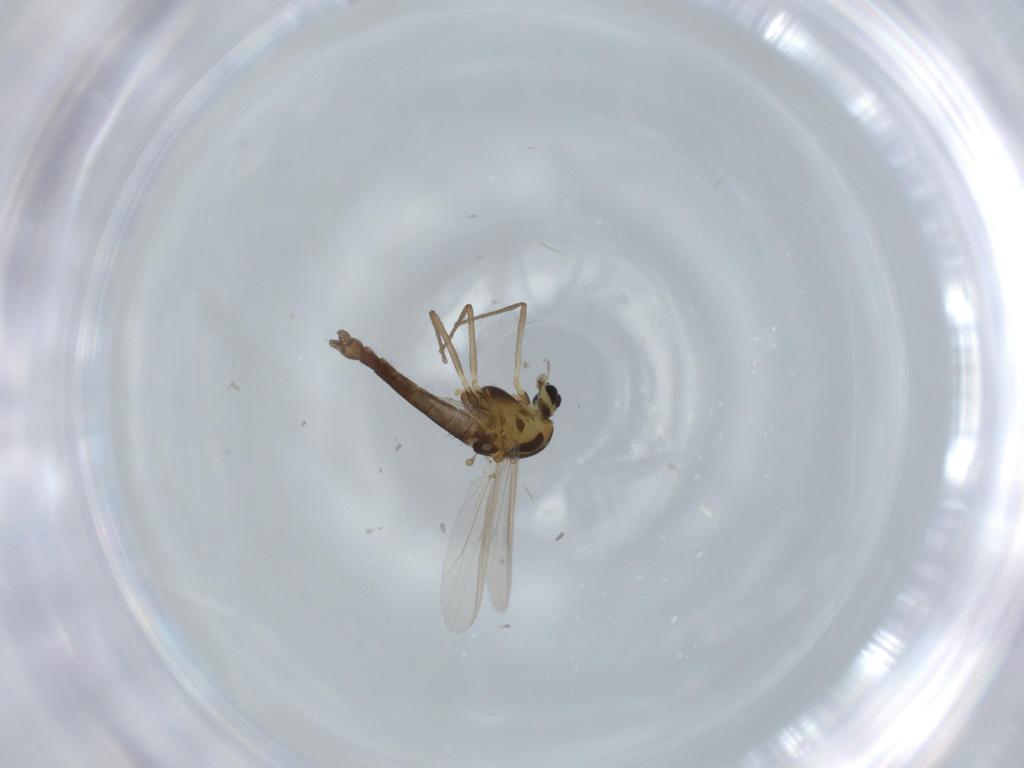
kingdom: Animalia
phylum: Arthropoda
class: Insecta
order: Diptera
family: Chironomidae
